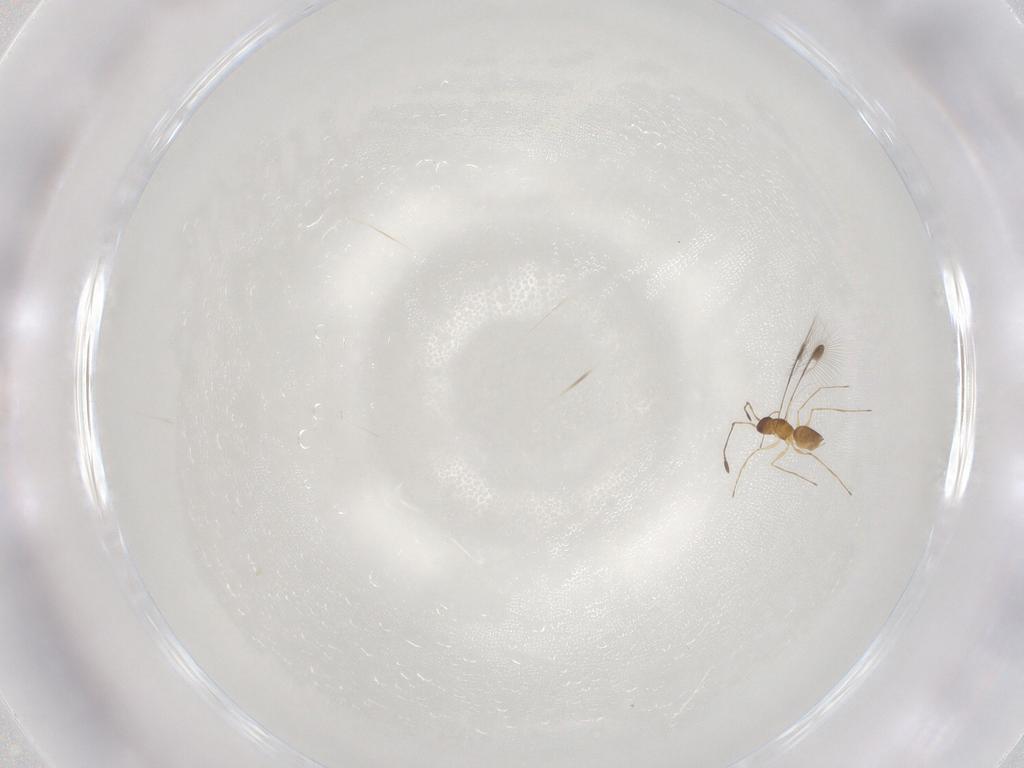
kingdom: Animalia
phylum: Arthropoda
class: Insecta
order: Hymenoptera
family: Mymaridae
